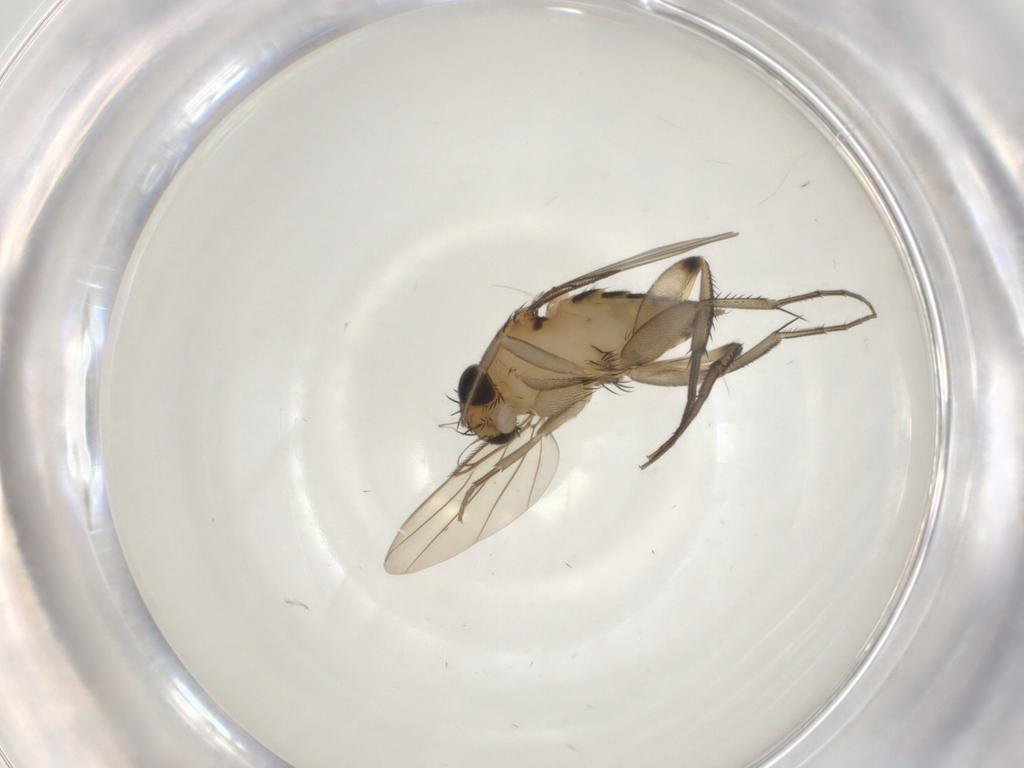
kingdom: Animalia
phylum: Arthropoda
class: Insecta
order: Diptera
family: Phoridae
